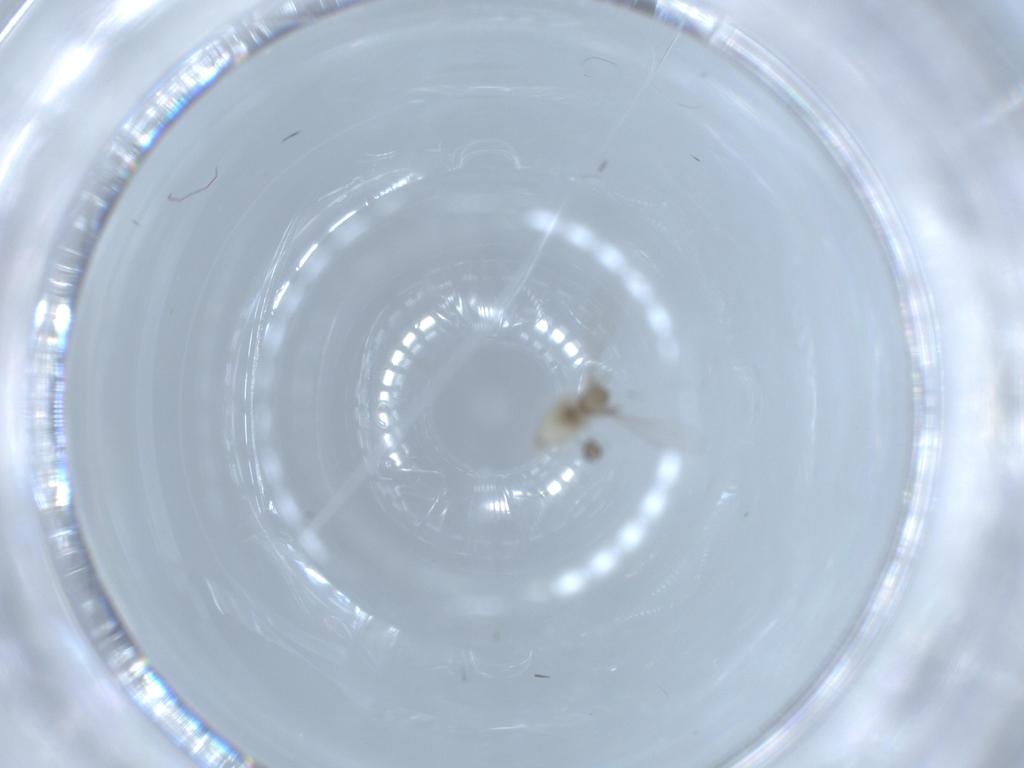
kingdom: Animalia
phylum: Arthropoda
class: Insecta
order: Diptera
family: Cecidomyiidae
